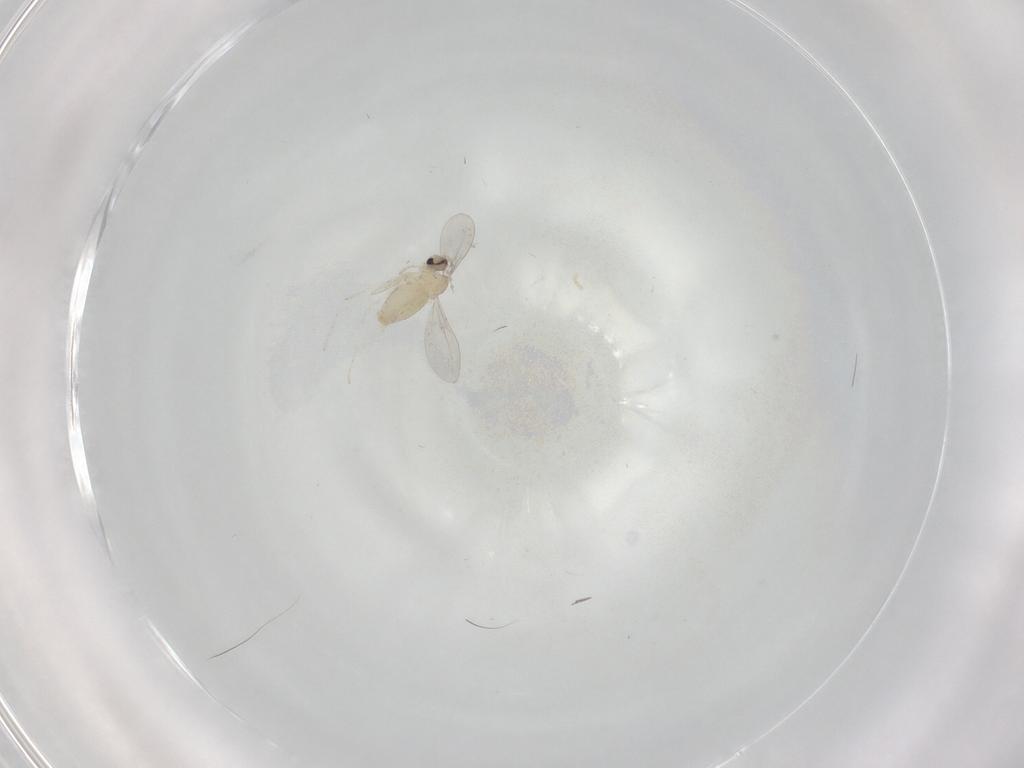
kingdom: Animalia
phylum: Arthropoda
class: Insecta
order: Diptera
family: Cecidomyiidae
